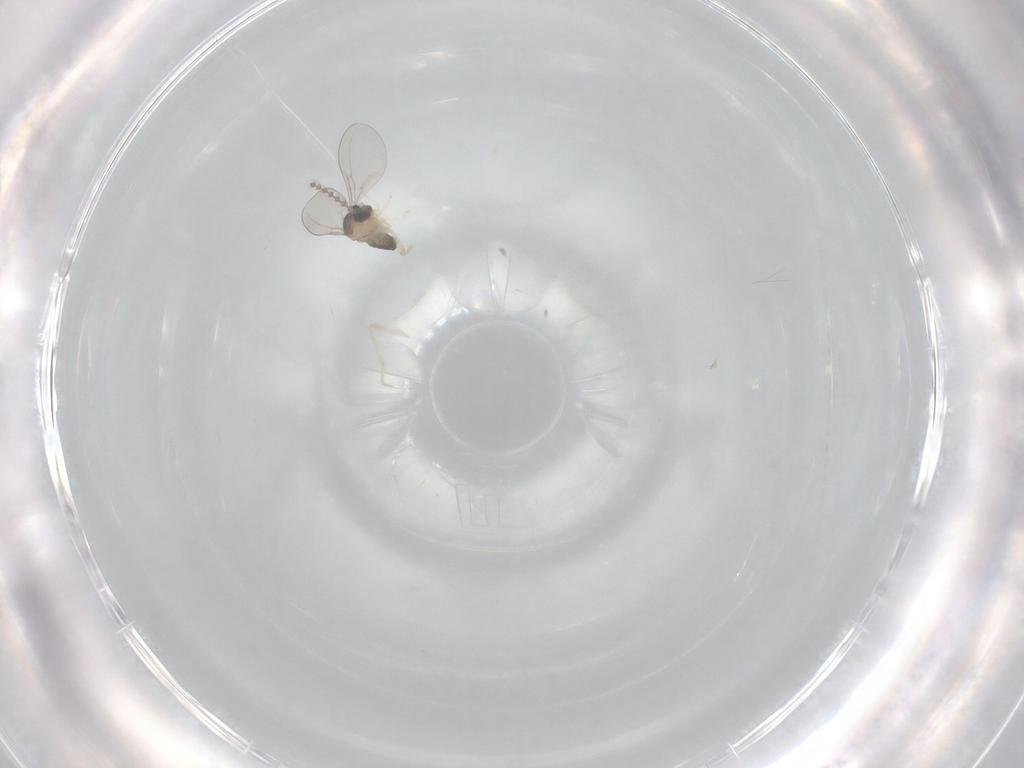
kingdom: Animalia
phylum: Arthropoda
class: Insecta
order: Diptera
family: Cecidomyiidae
